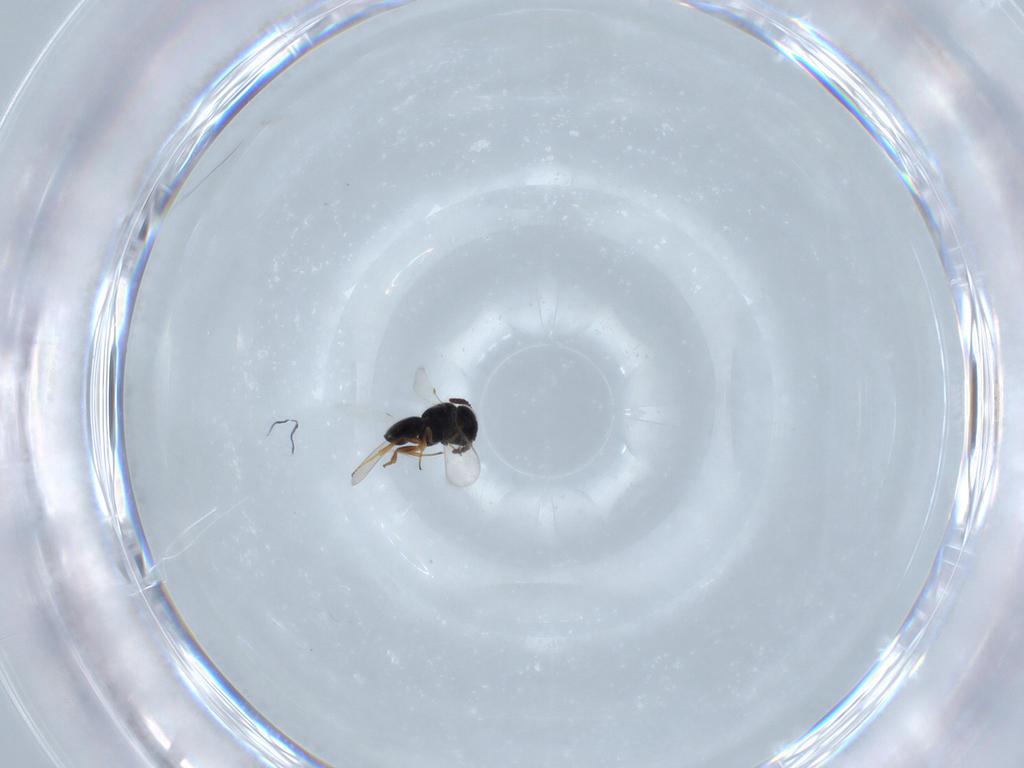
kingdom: Animalia
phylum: Arthropoda
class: Insecta
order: Hymenoptera
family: Scelionidae
